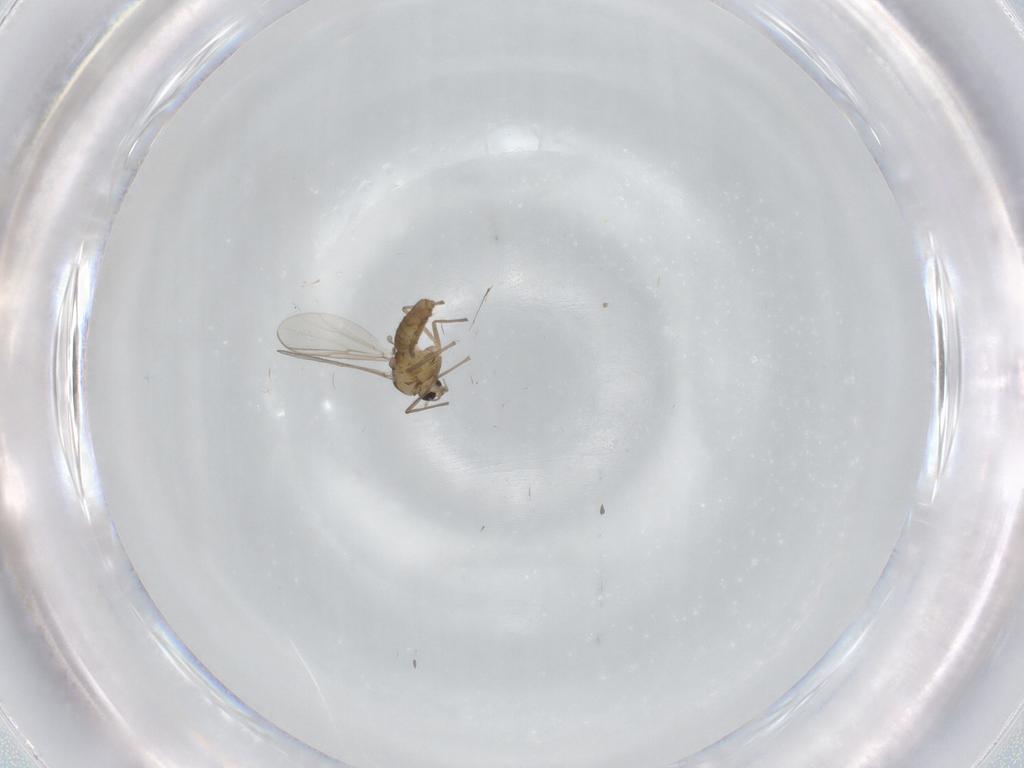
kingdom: Animalia
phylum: Arthropoda
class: Insecta
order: Diptera
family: Chironomidae
